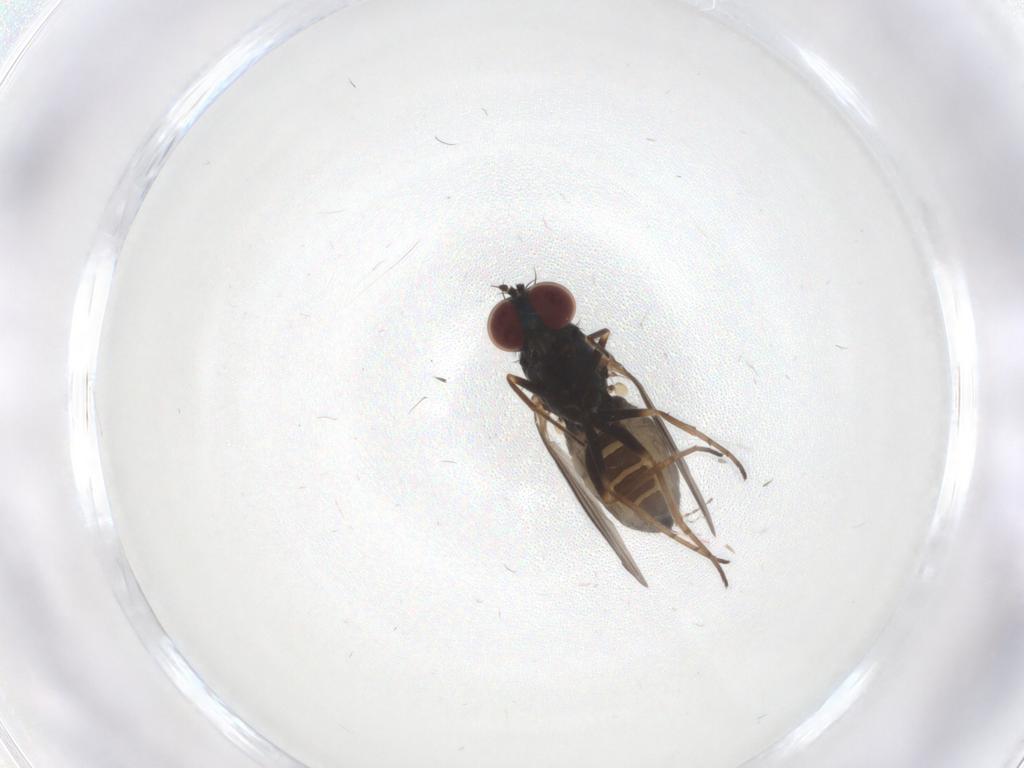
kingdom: Animalia
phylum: Arthropoda
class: Insecta
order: Diptera
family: Dolichopodidae
